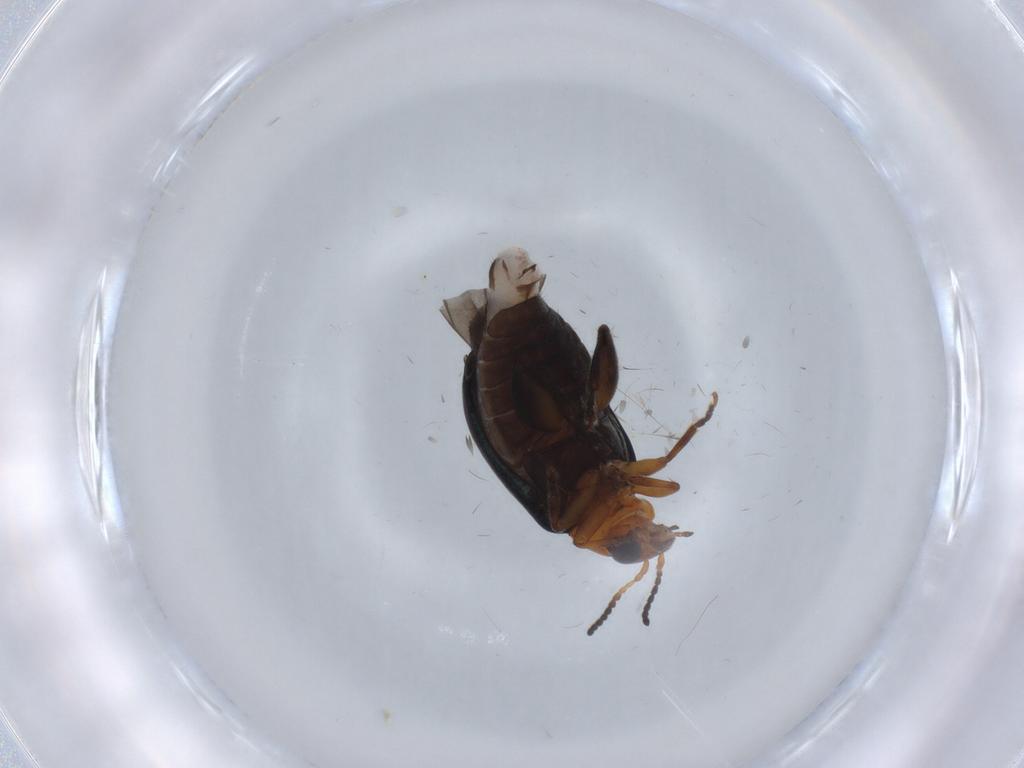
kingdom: Animalia
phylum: Arthropoda
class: Insecta
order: Coleoptera
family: Chrysomelidae
